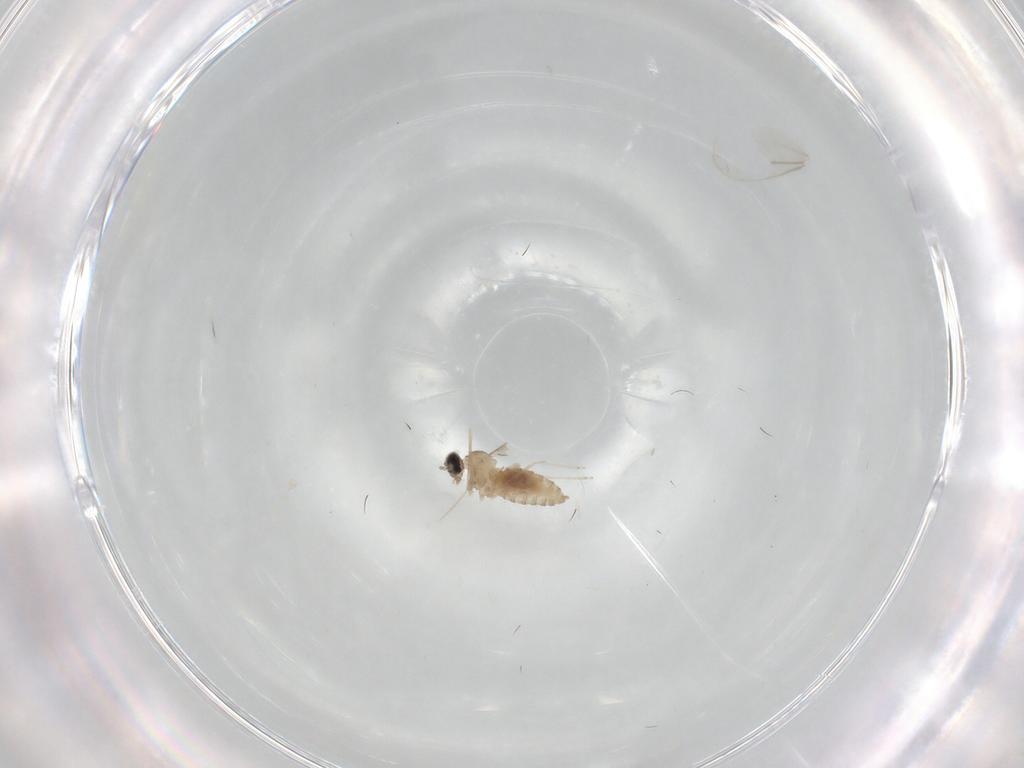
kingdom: Animalia
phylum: Arthropoda
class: Insecta
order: Diptera
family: Cecidomyiidae
